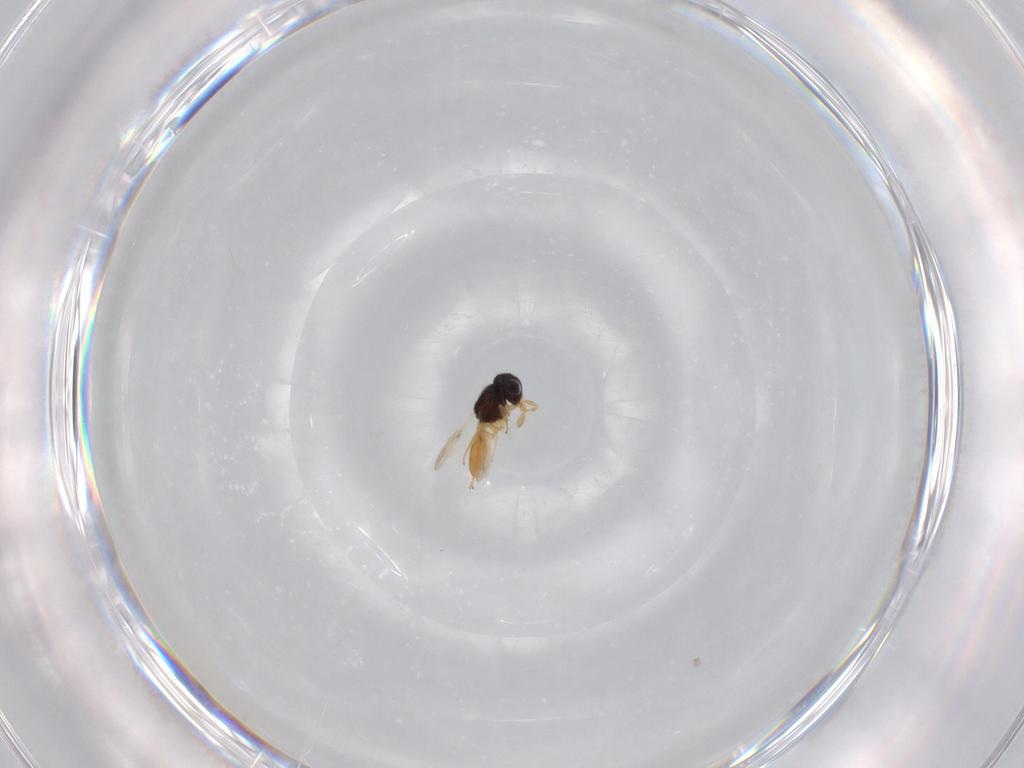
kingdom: Animalia
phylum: Arthropoda
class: Insecta
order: Hymenoptera
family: Scelionidae
